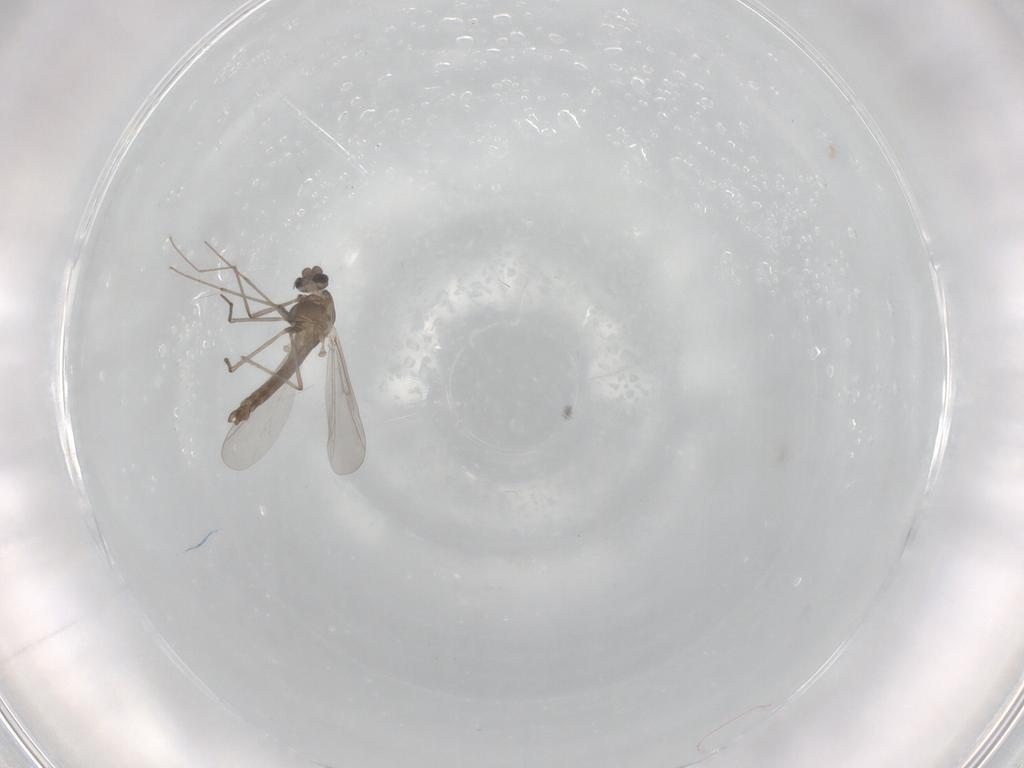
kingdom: Animalia
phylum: Arthropoda
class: Insecta
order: Diptera
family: Chironomidae
